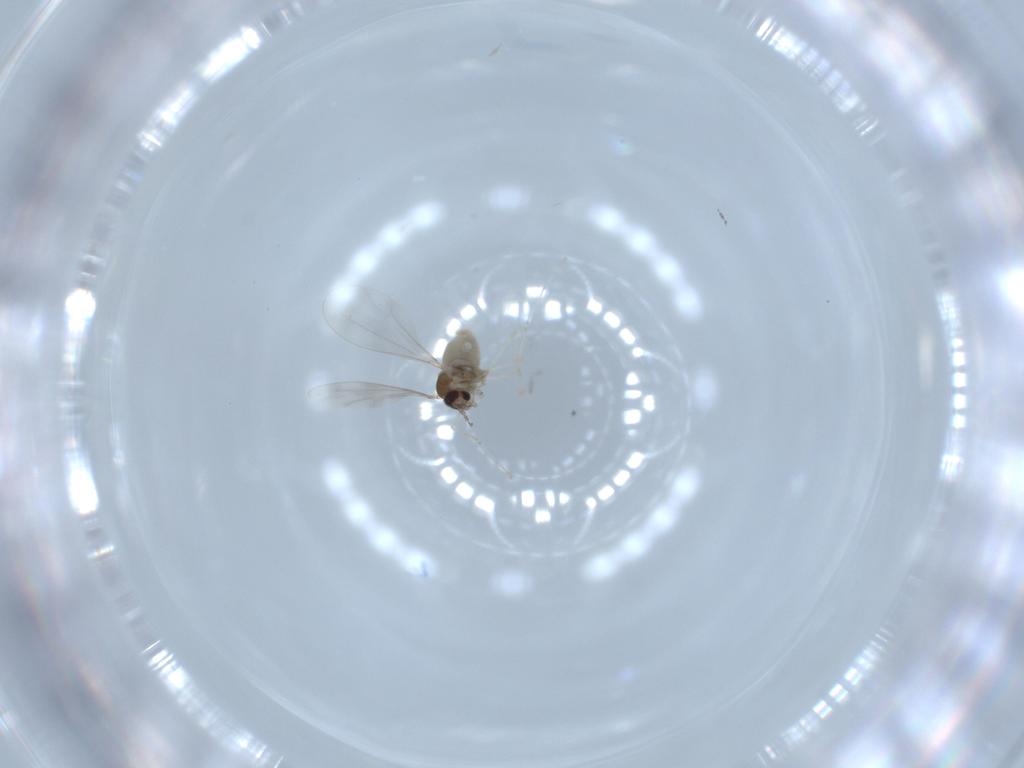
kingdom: Animalia
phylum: Arthropoda
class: Insecta
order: Diptera
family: Cecidomyiidae
